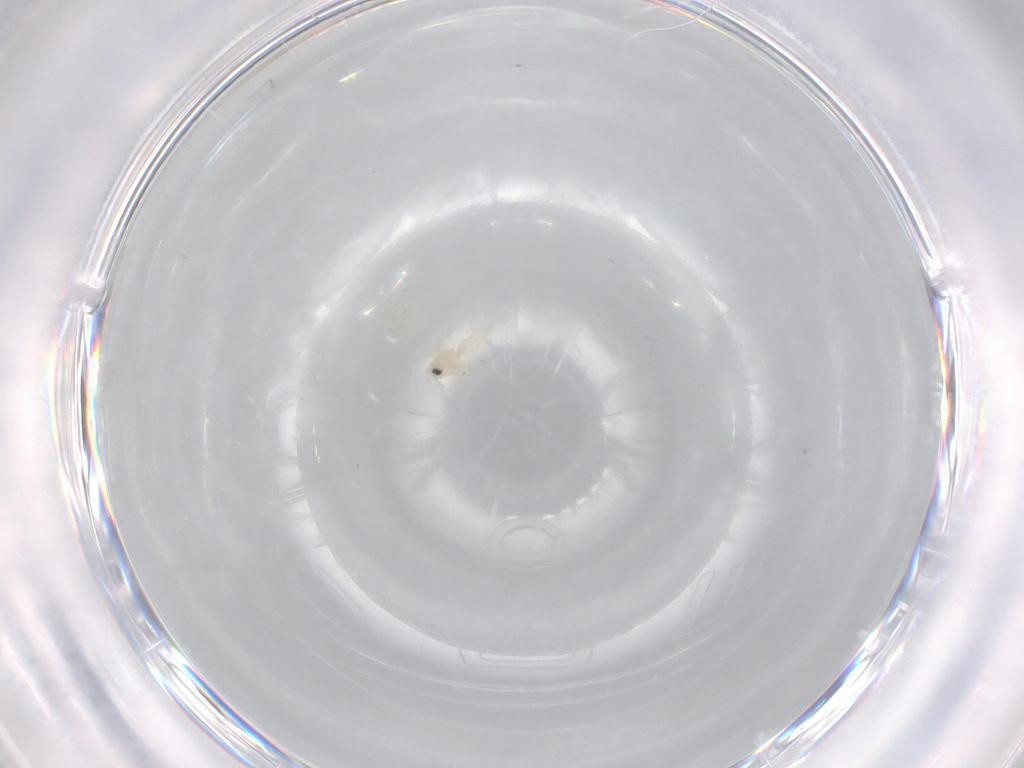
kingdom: Animalia
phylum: Arthropoda
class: Insecta
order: Hemiptera
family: Aleyrodidae
